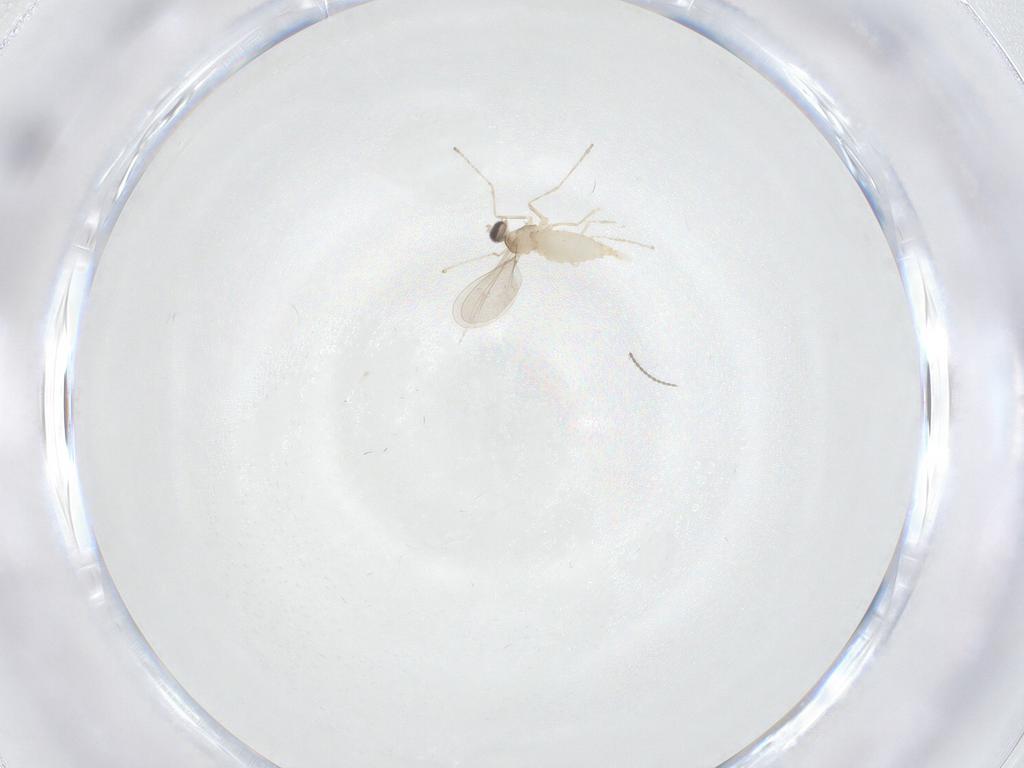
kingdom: Animalia
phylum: Arthropoda
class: Insecta
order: Diptera
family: Cecidomyiidae
